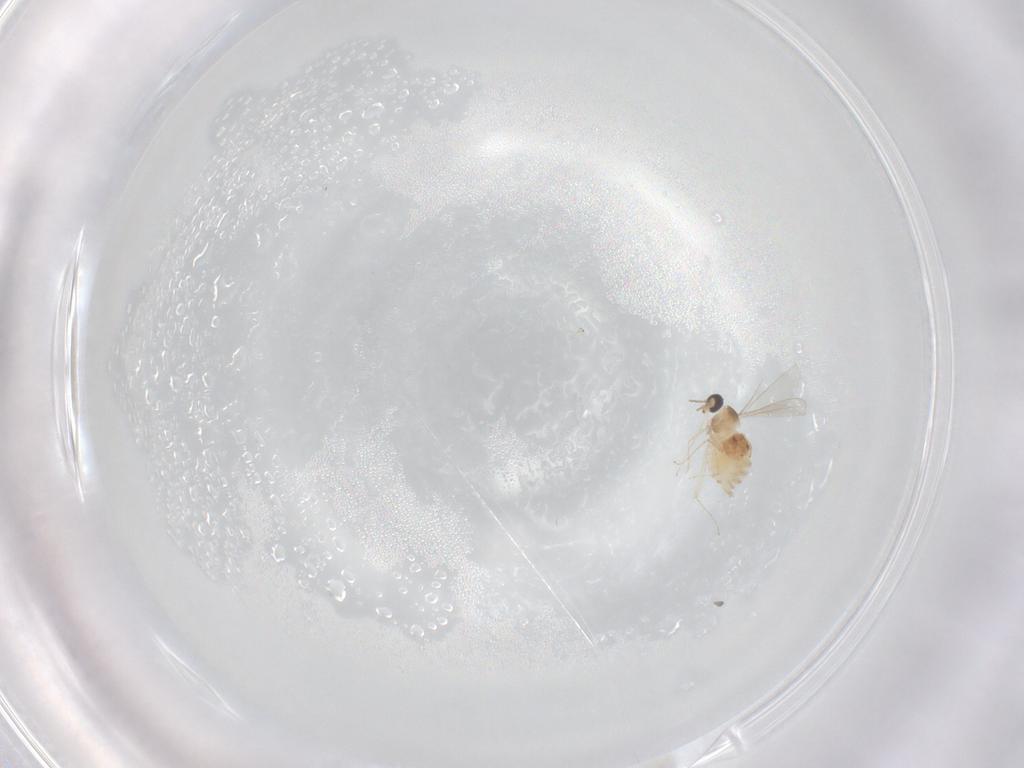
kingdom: Animalia
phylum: Arthropoda
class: Insecta
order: Diptera
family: Cecidomyiidae
